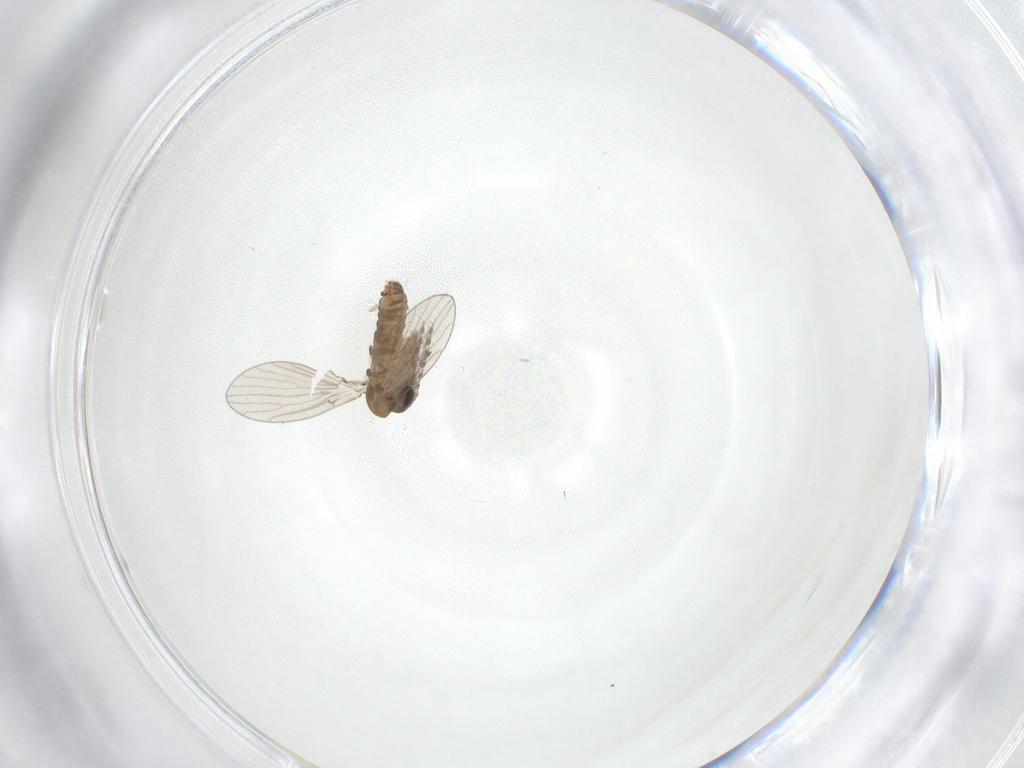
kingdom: Animalia
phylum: Arthropoda
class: Insecta
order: Diptera
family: Psychodidae
